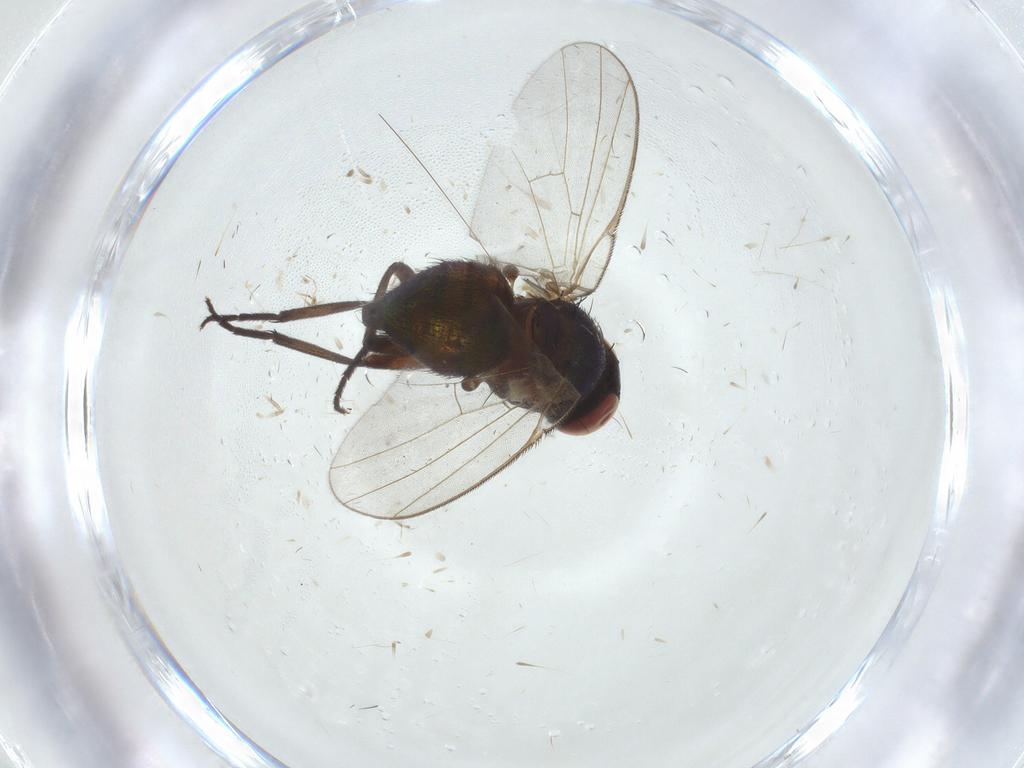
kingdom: Animalia
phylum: Arthropoda
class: Insecta
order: Diptera
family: Agromyzidae
